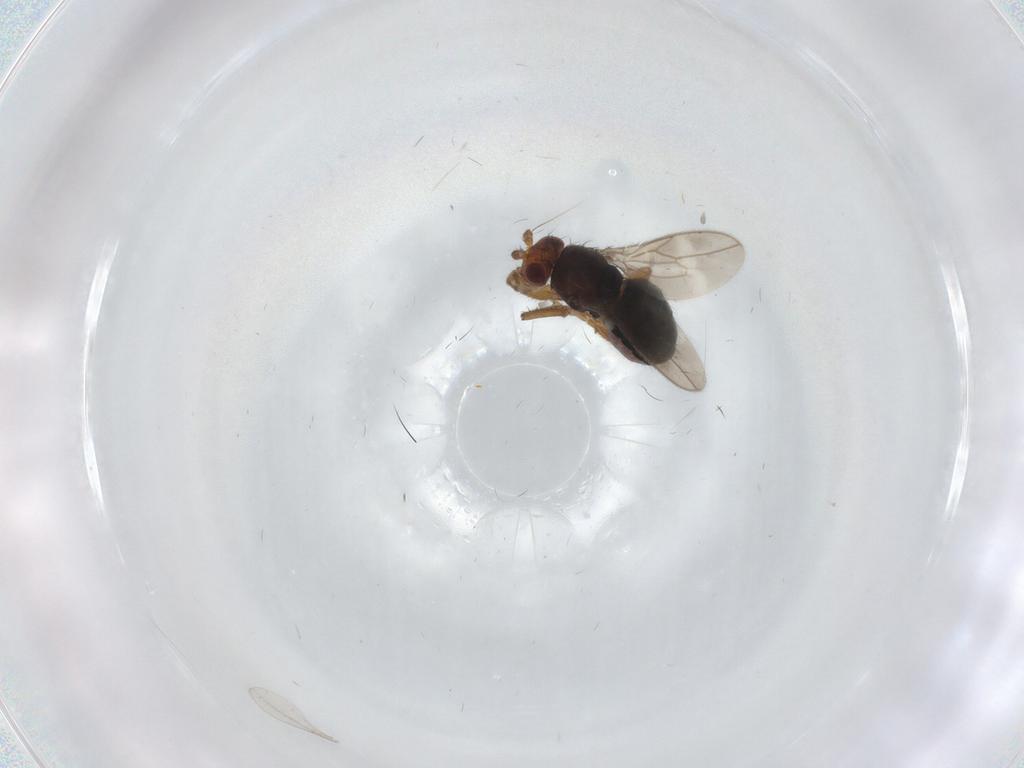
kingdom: Animalia
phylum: Arthropoda
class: Insecta
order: Diptera
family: Sphaeroceridae
